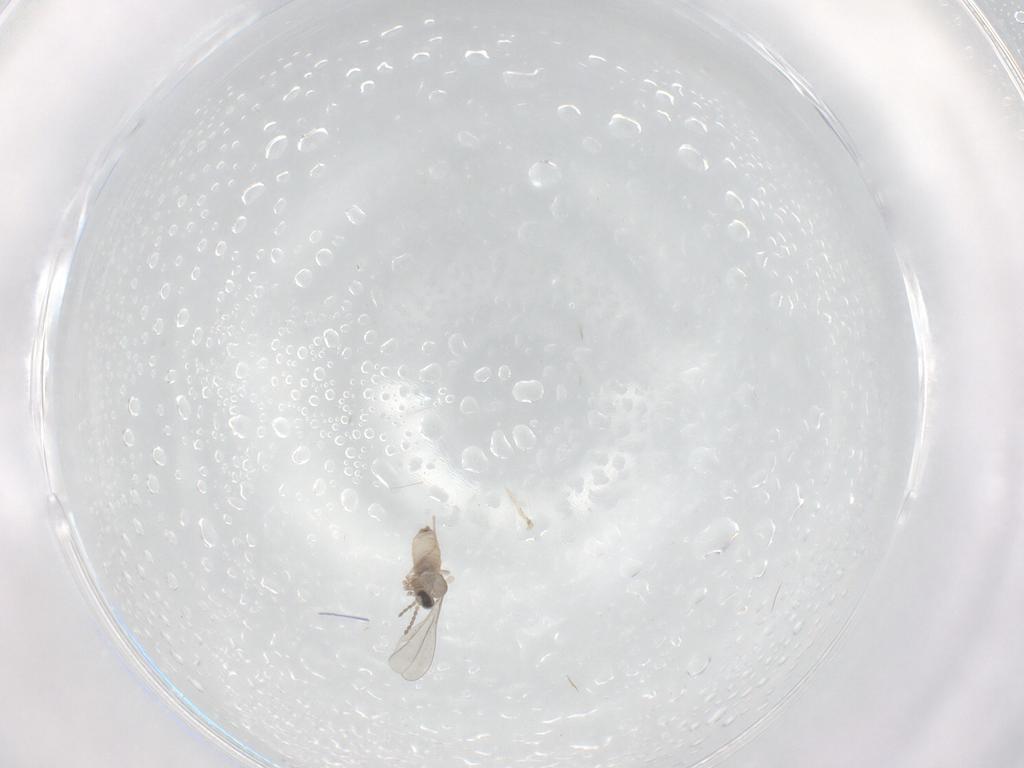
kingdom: Animalia
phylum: Arthropoda
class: Insecta
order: Diptera
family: Cecidomyiidae
